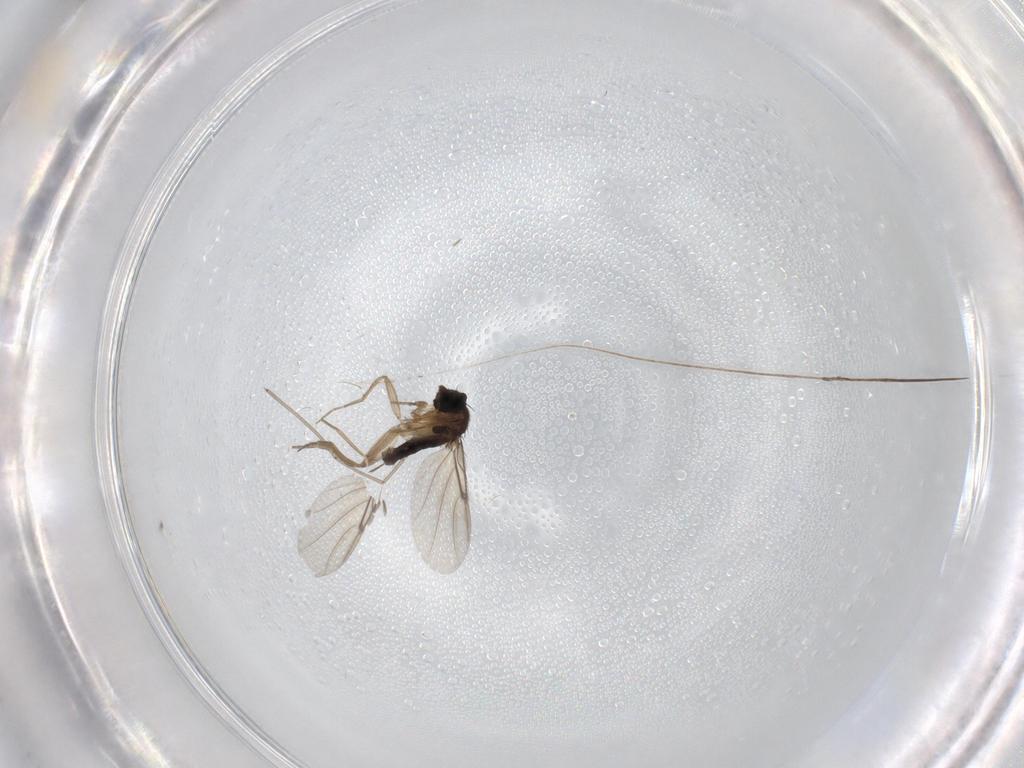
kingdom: Animalia
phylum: Arthropoda
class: Insecta
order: Diptera
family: Phoridae
